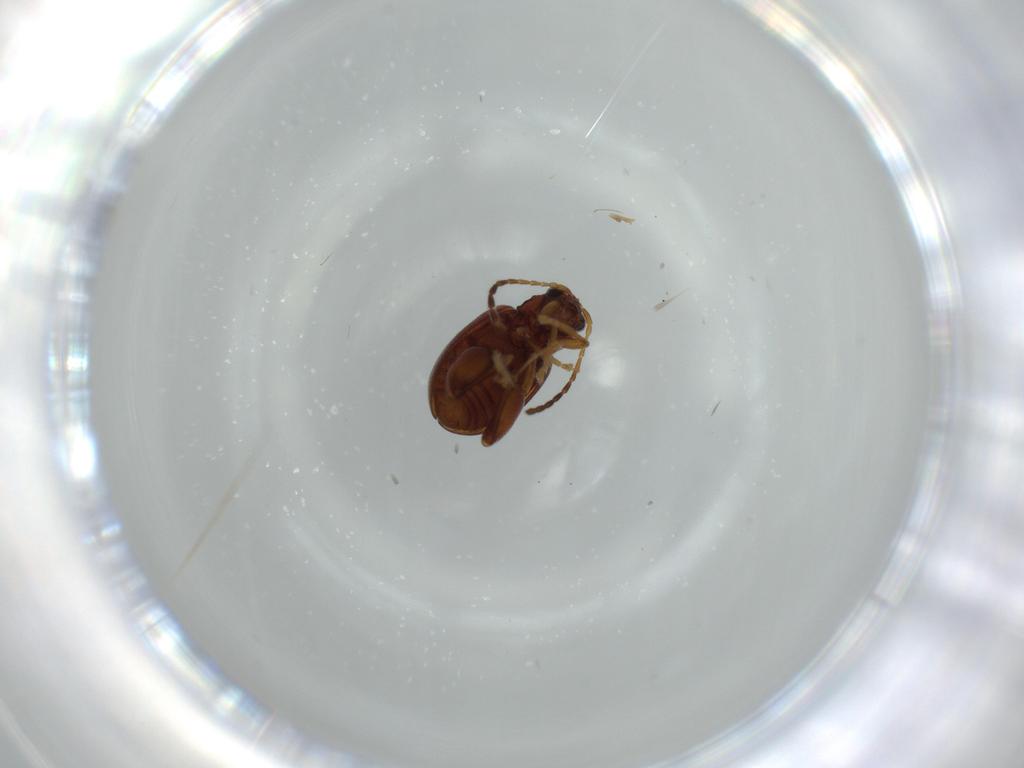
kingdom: Animalia
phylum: Arthropoda
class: Insecta
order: Coleoptera
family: Chrysomelidae
